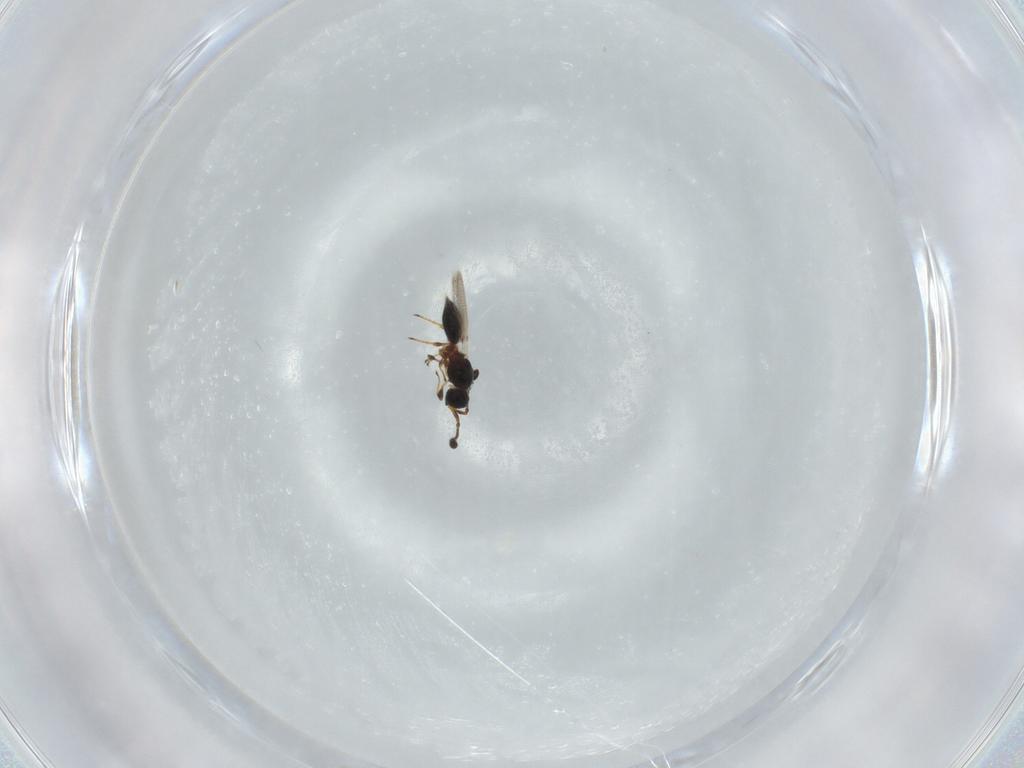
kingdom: Animalia
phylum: Arthropoda
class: Insecta
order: Hymenoptera
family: Diapriidae
